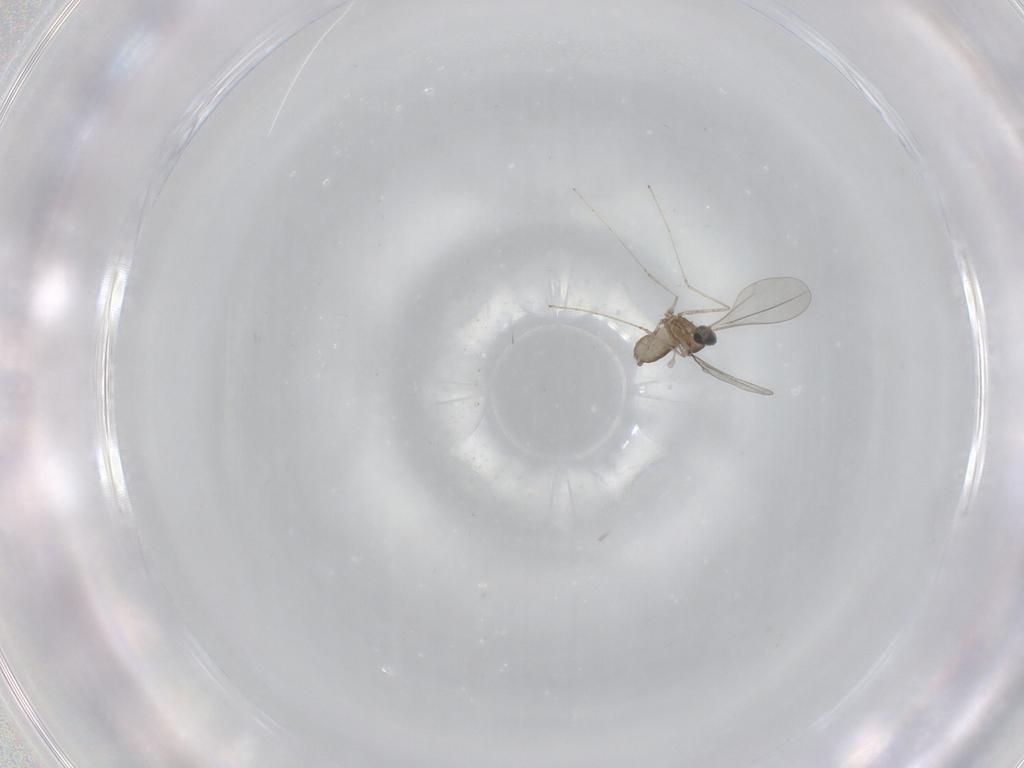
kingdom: Animalia
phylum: Arthropoda
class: Insecta
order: Diptera
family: Cecidomyiidae
